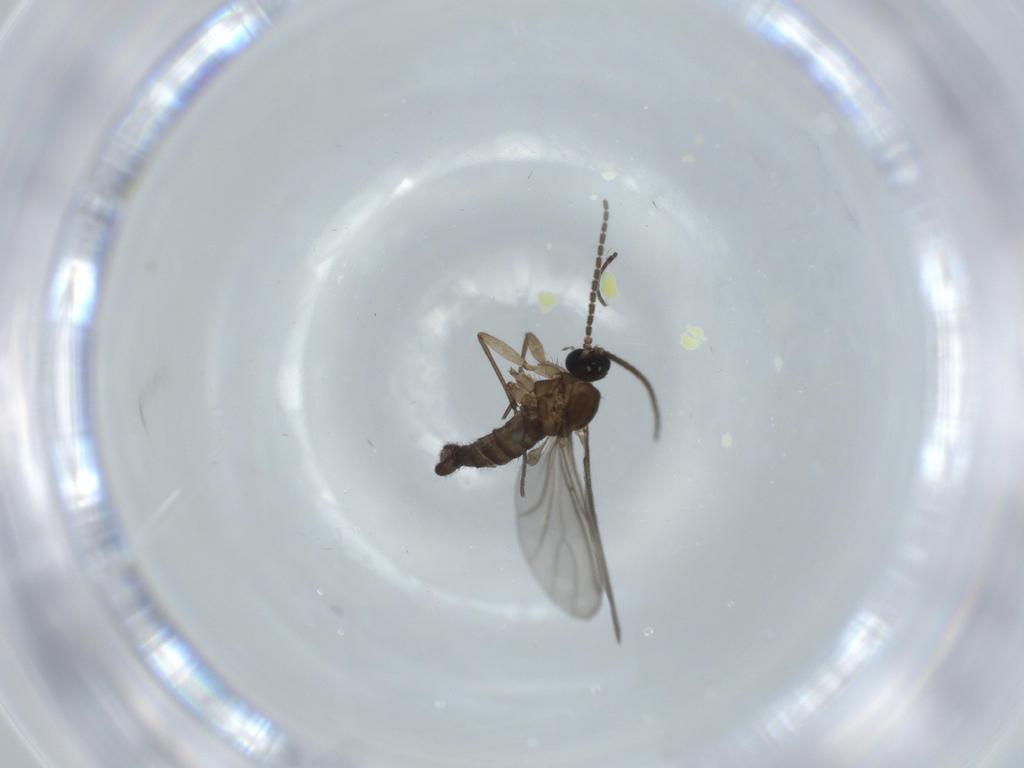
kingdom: Animalia
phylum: Arthropoda
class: Insecta
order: Diptera
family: Sciaridae
